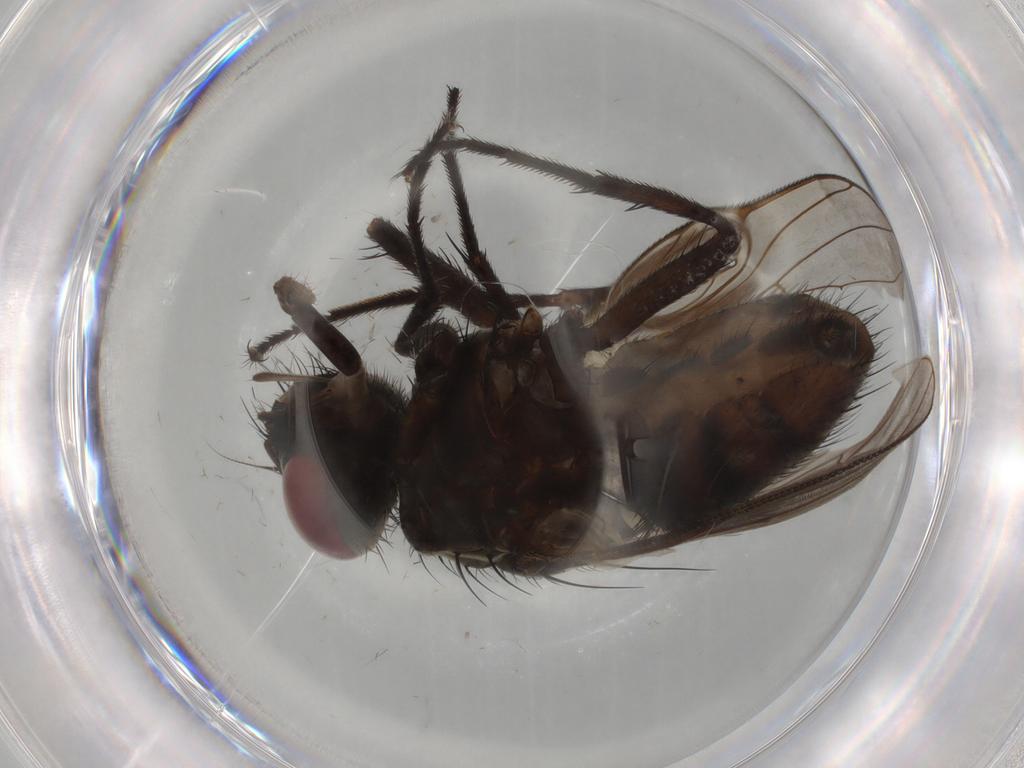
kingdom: Animalia
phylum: Arthropoda
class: Insecta
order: Diptera
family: Muscidae
